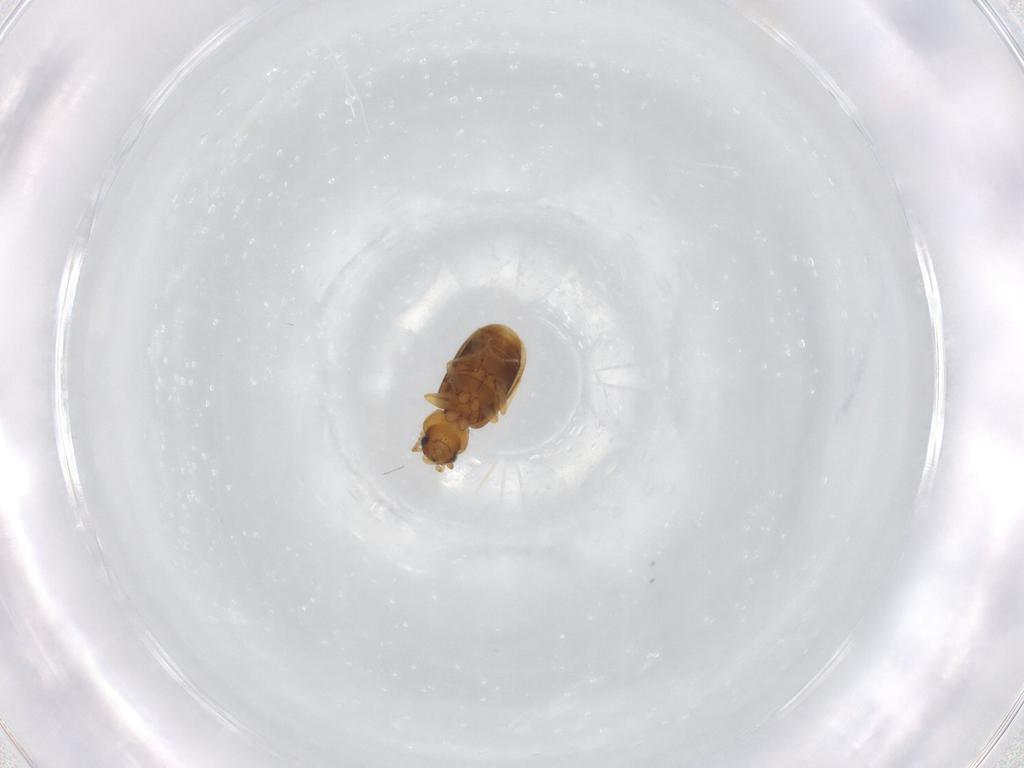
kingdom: Animalia
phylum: Arthropoda
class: Insecta
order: Coleoptera
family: Carabidae
